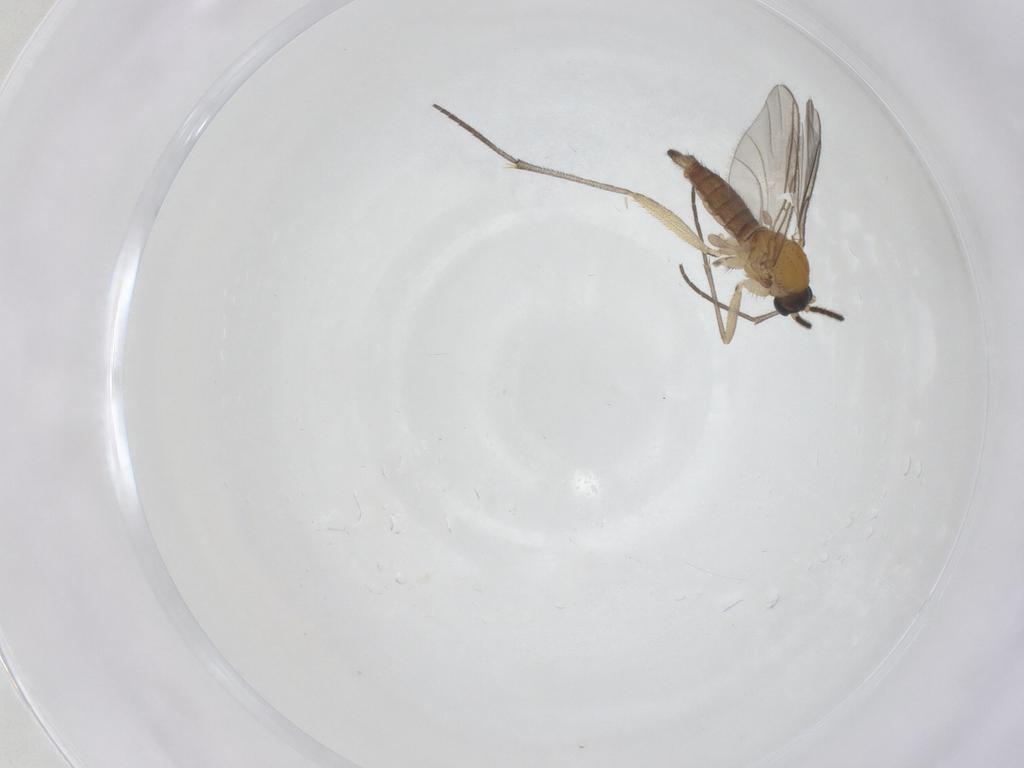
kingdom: Animalia
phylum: Arthropoda
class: Insecta
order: Diptera
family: Sciaridae
